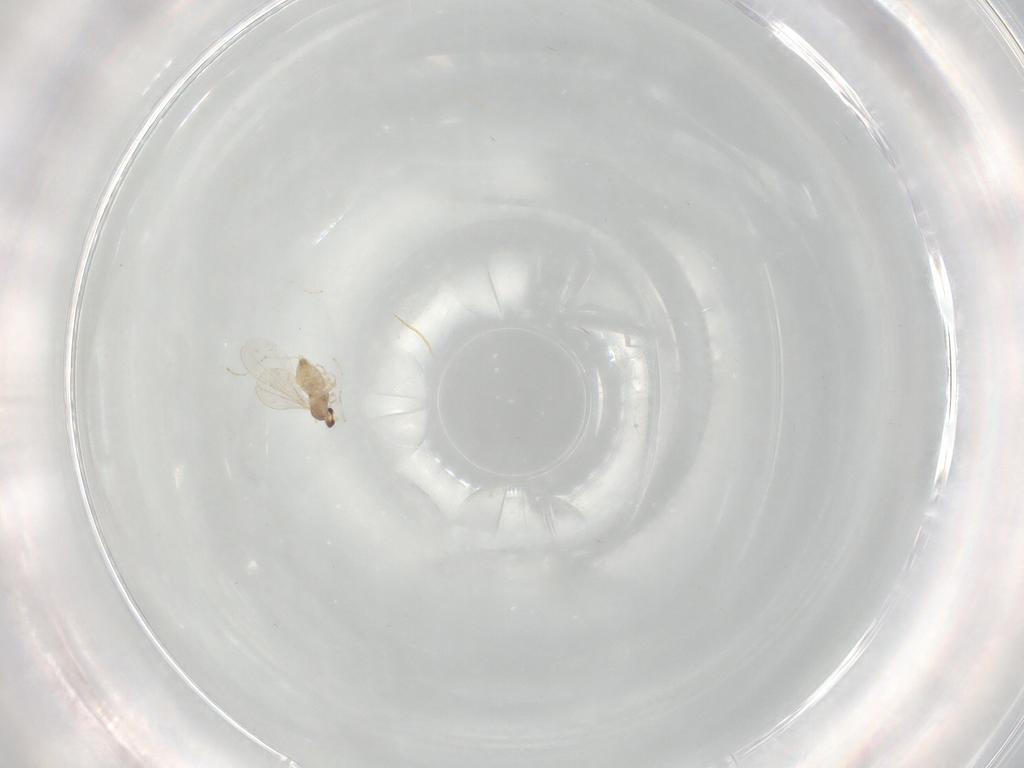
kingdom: Animalia
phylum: Arthropoda
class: Insecta
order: Diptera
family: Cecidomyiidae
